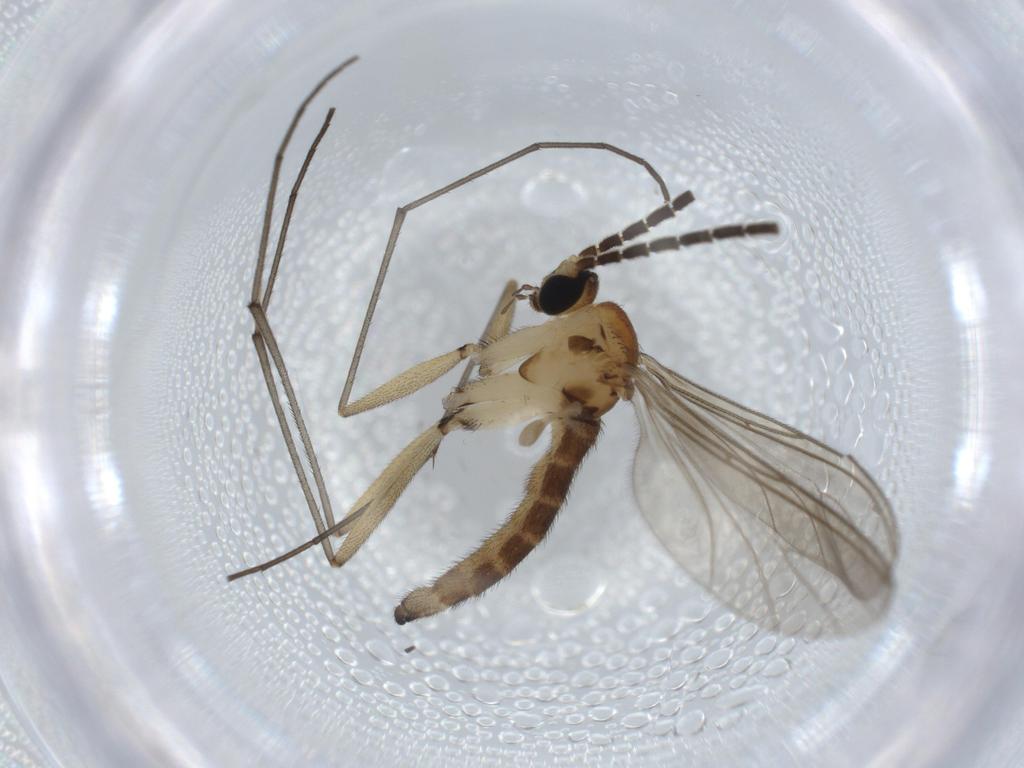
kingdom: Animalia
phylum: Arthropoda
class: Insecta
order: Diptera
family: Sciaridae
